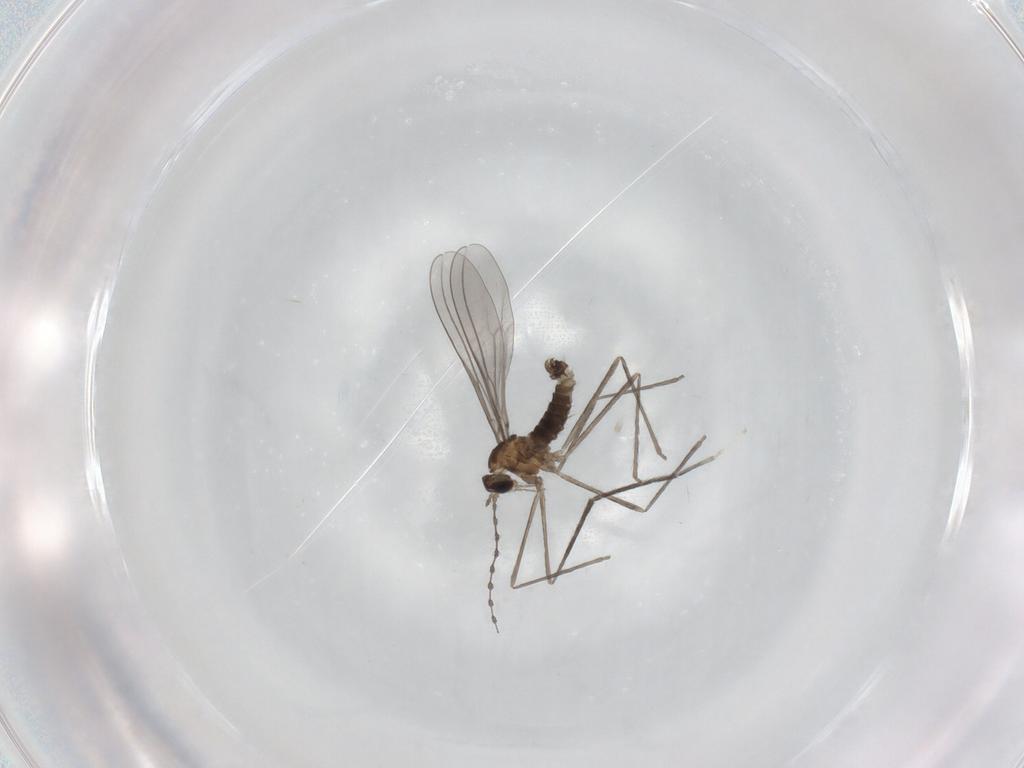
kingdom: Animalia
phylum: Arthropoda
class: Insecta
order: Diptera
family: Cecidomyiidae
